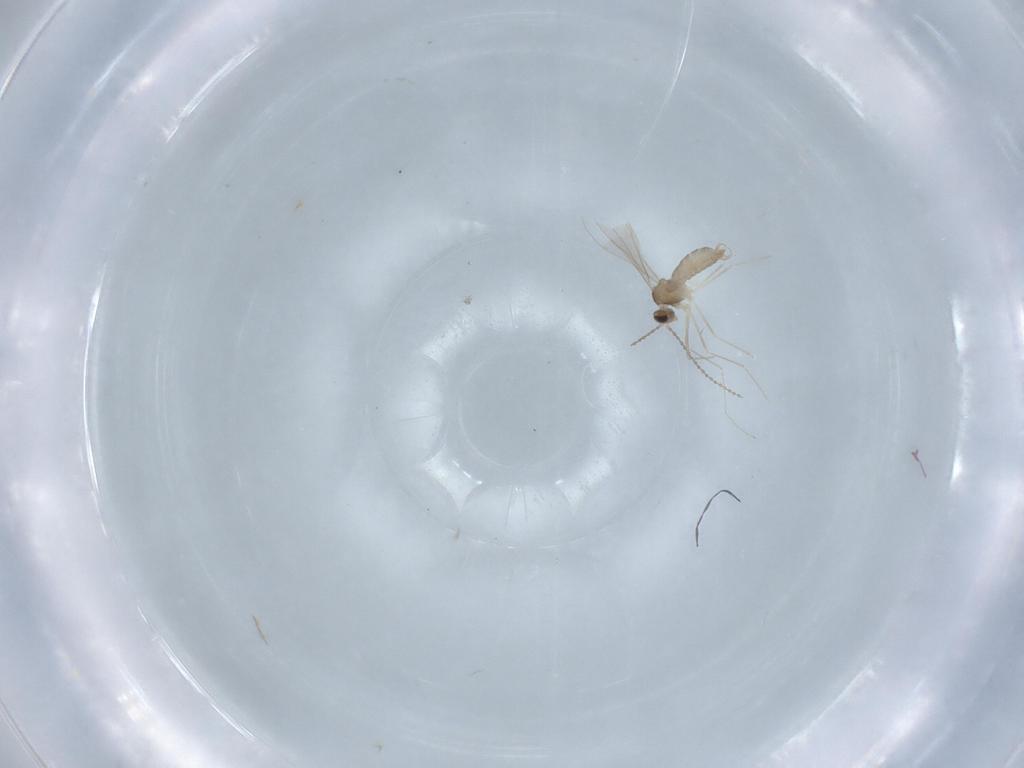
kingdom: Animalia
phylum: Arthropoda
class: Insecta
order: Diptera
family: Cecidomyiidae
